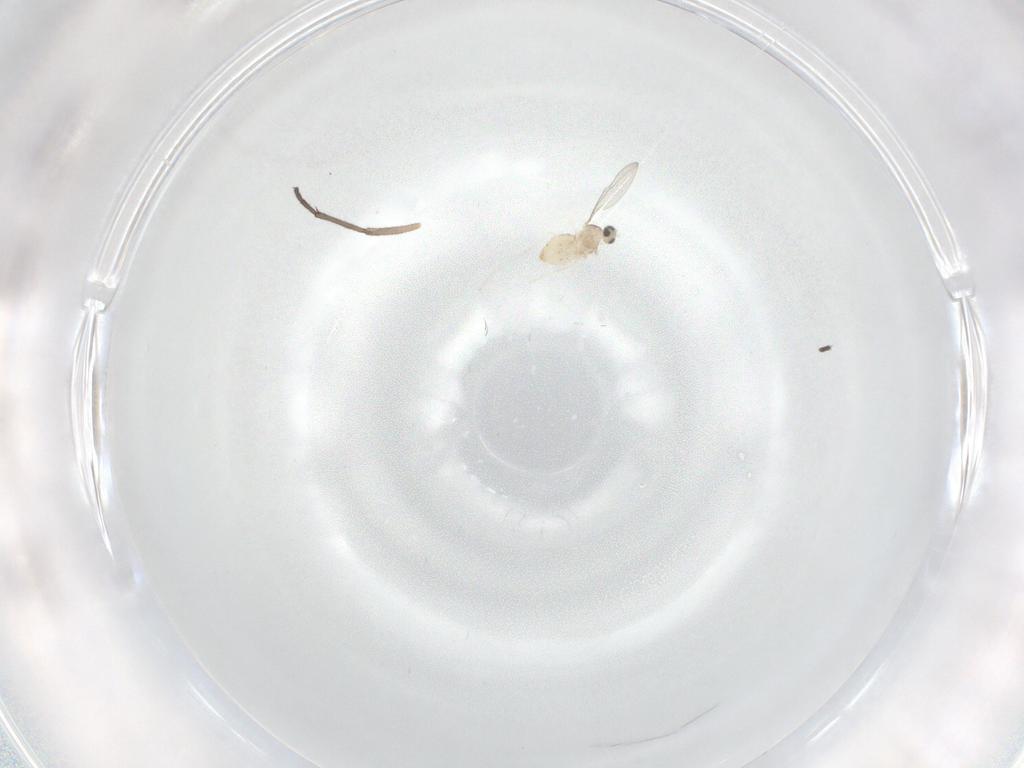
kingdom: Animalia
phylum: Arthropoda
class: Insecta
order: Diptera
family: Cecidomyiidae
